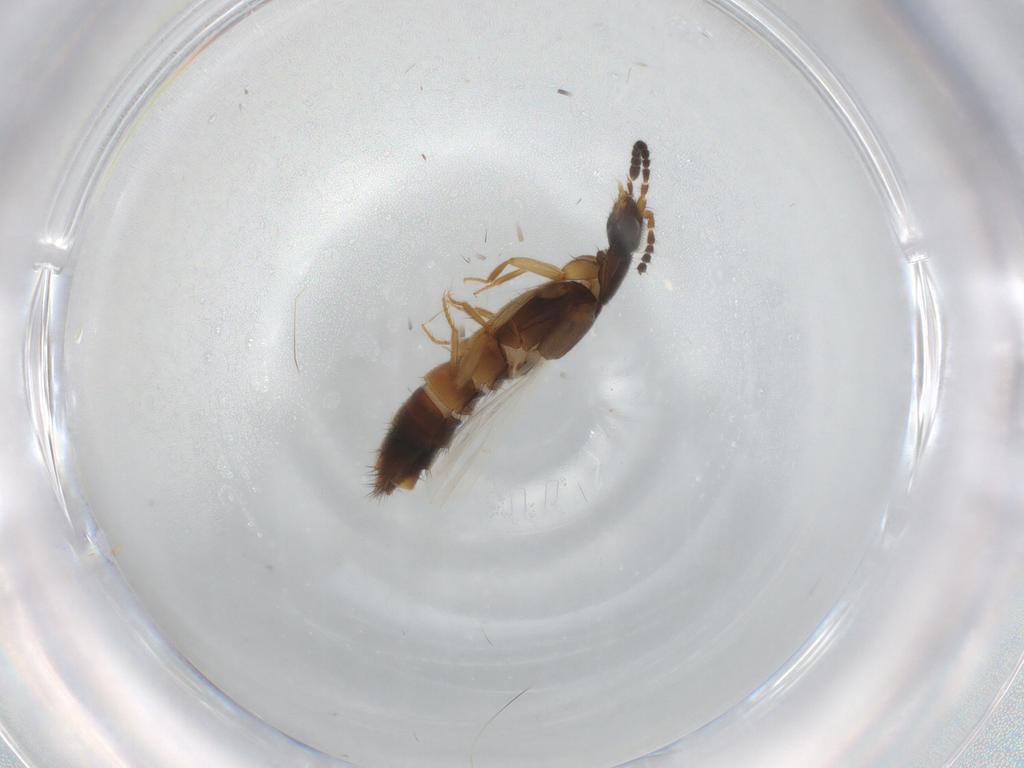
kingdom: Animalia
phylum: Arthropoda
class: Insecta
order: Coleoptera
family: Staphylinidae
